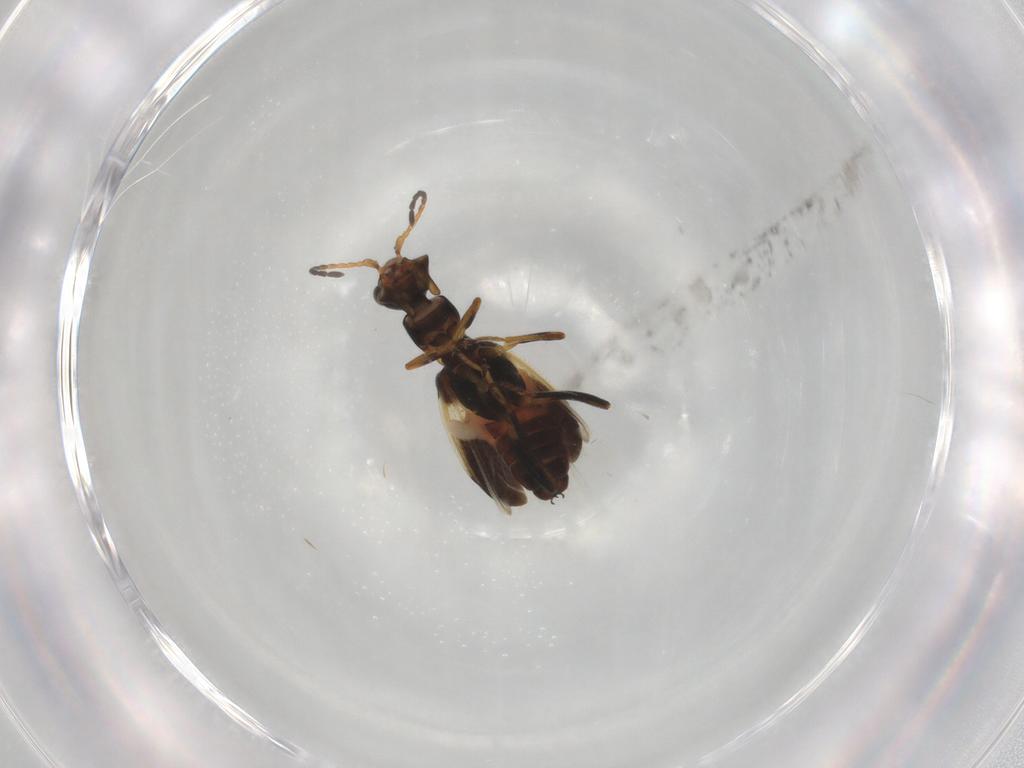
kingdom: Animalia
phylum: Arthropoda
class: Insecta
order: Coleoptera
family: Melyridae
